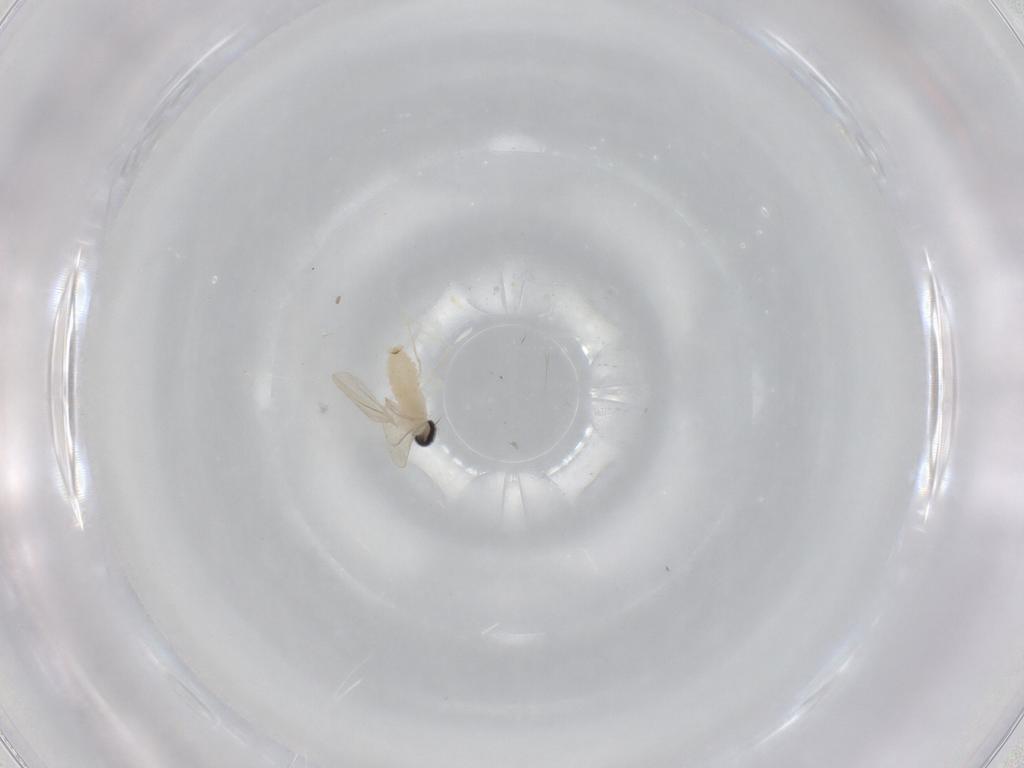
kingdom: Animalia
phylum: Arthropoda
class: Insecta
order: Diptera
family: Cecidomyiidae
